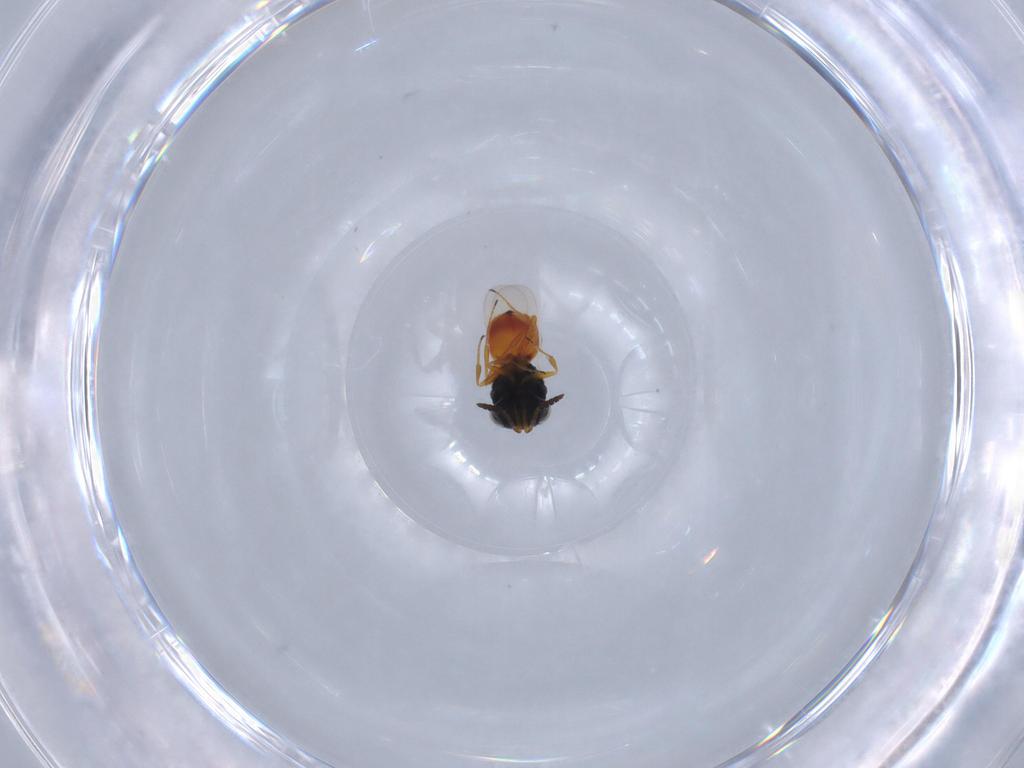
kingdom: Animalia
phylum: Arthropoda
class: Insecta
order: Hymenoptera
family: Scelionidae
